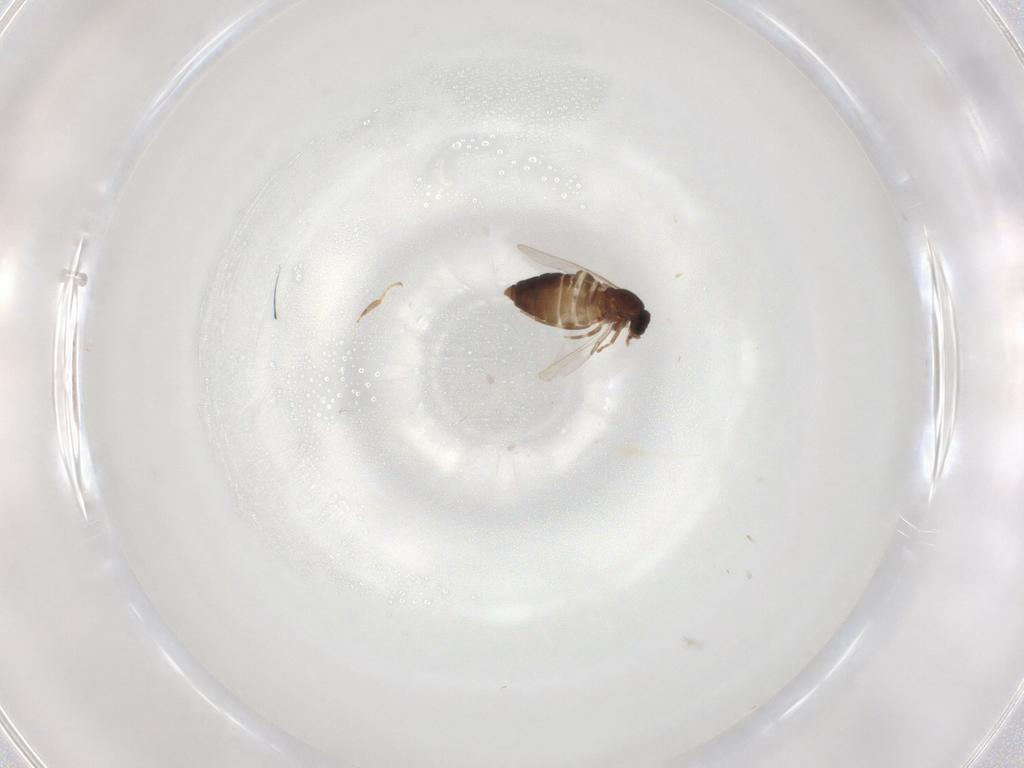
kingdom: Animalia
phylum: Arthropoda
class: Insecta
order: Diptera
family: Scatopsidae
